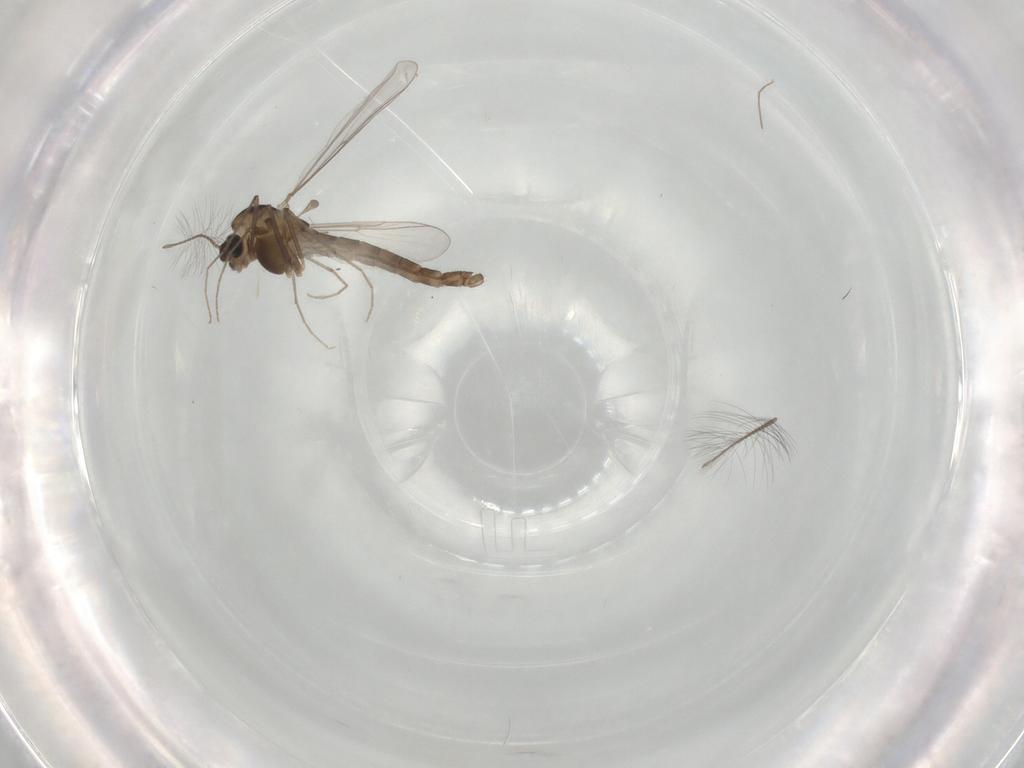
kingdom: Animalia
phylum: Arthropoda
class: Insecta
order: Diptera
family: Chironomidae
